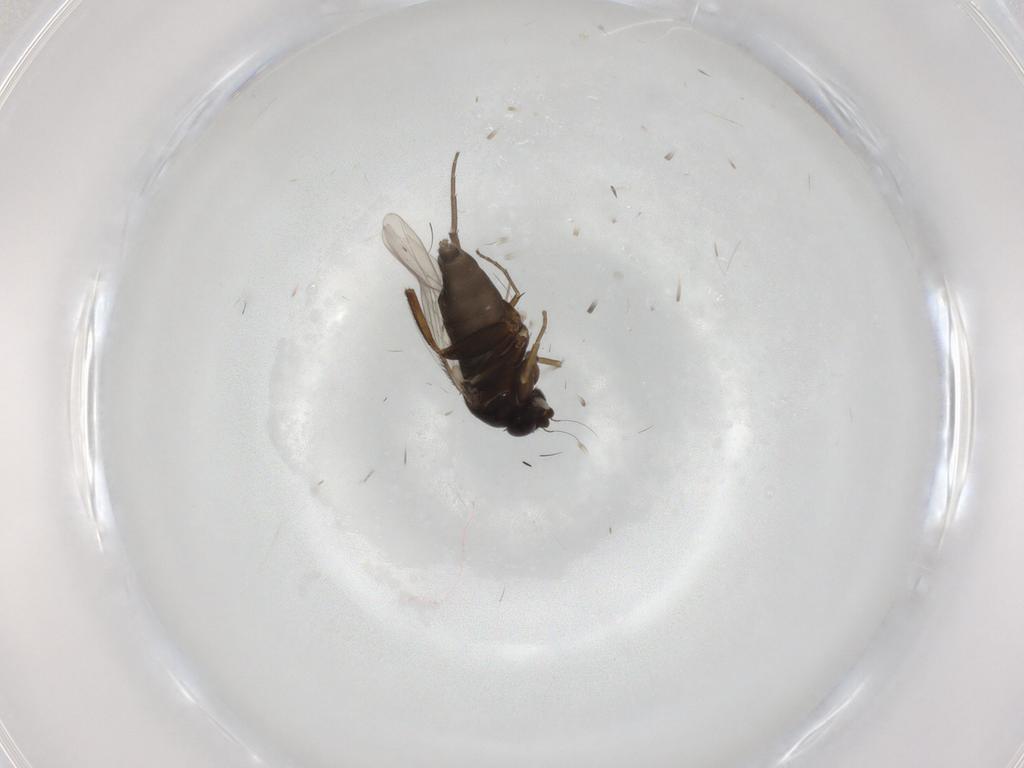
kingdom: Animalia
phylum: Arthropoda
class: Insecta
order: Diptera
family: Phoridae
